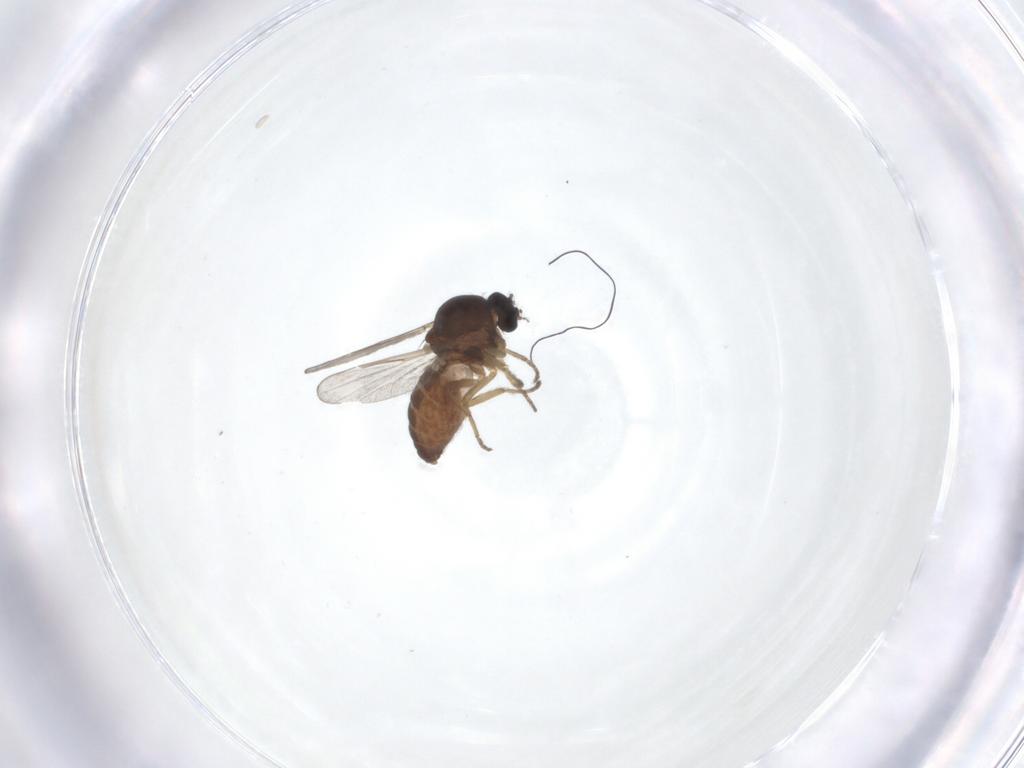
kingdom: Animalia
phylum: Arthropoda
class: Insecta
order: Diptera
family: Ceratopogonidae
